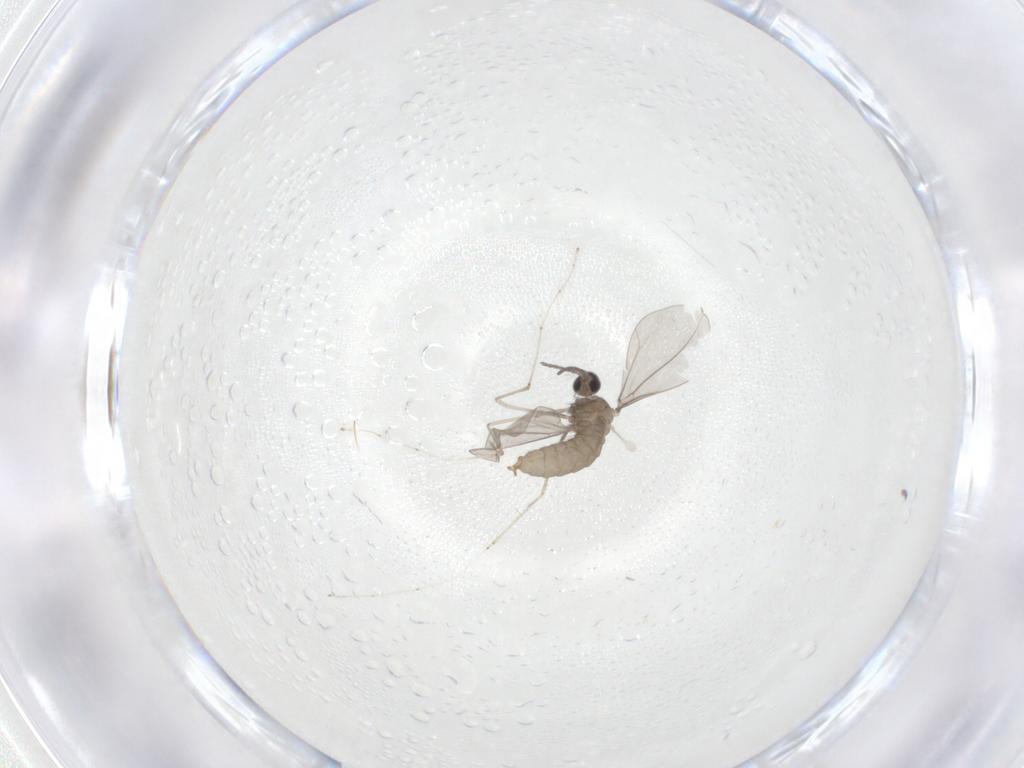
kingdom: Animalia
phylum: Arthropoda
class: Insecta
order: Diptera
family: Cecidomyiidae
